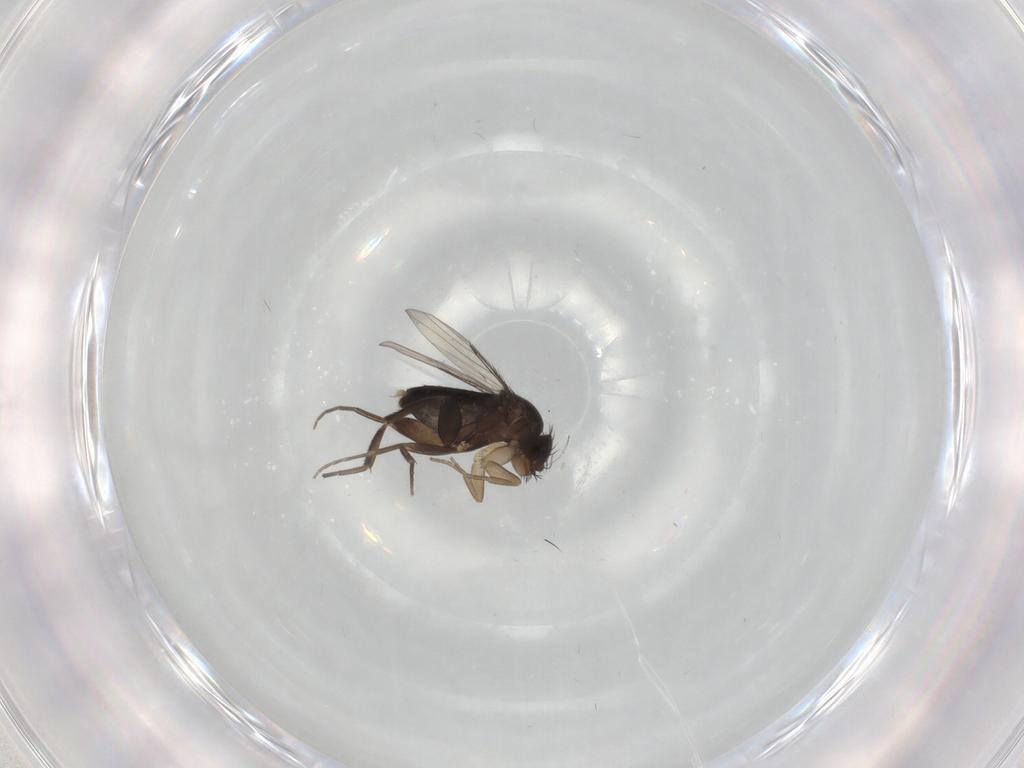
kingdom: Animalia
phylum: Arthropoda
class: Insecta
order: Diptera
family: Phoridae
